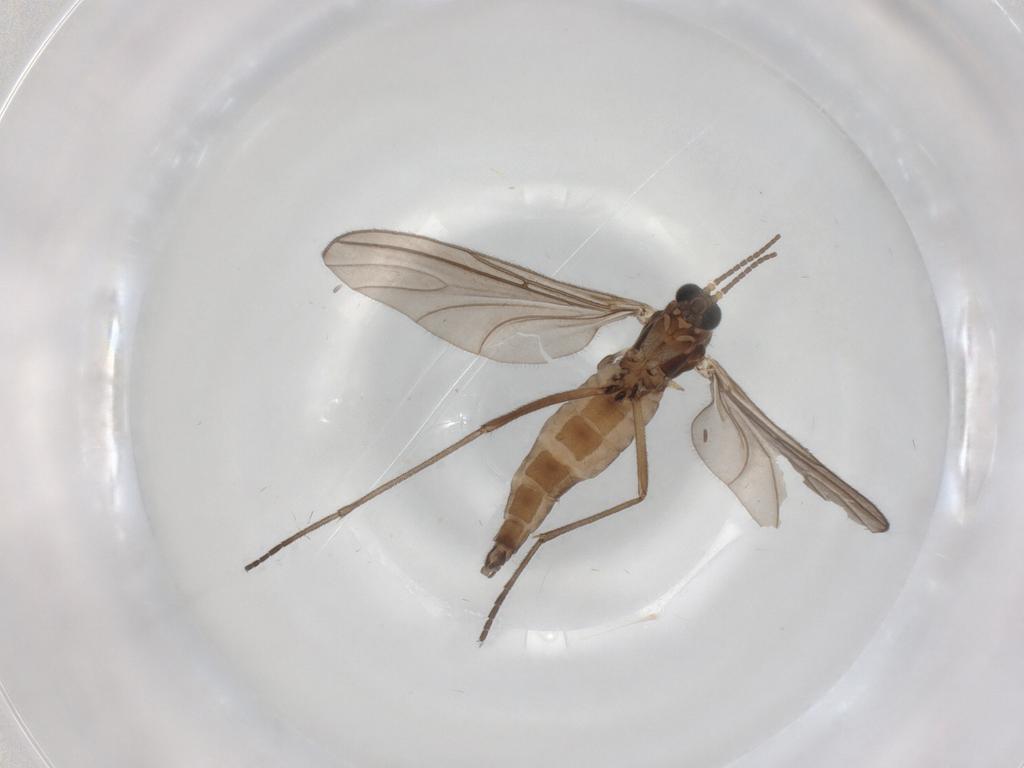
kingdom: Animalia
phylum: Arthropoda
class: Insecta
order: Diptera
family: Sciaridae
